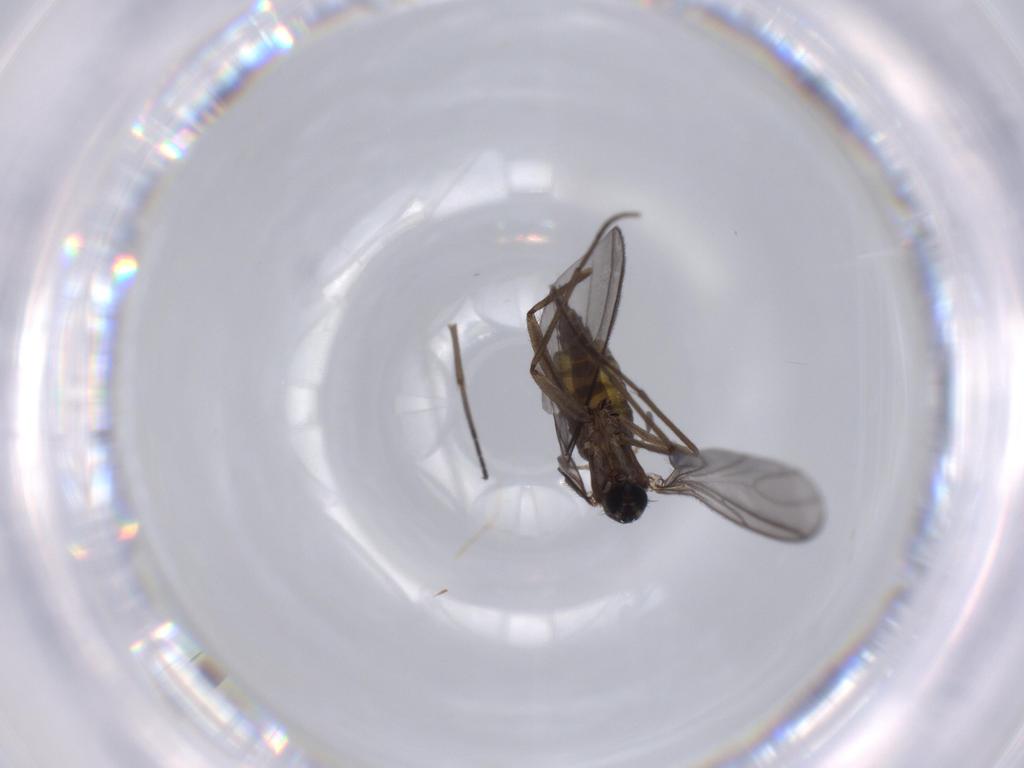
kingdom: Animalia
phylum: Arthropoda
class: Insecta
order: Diptera
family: Sciaridae
